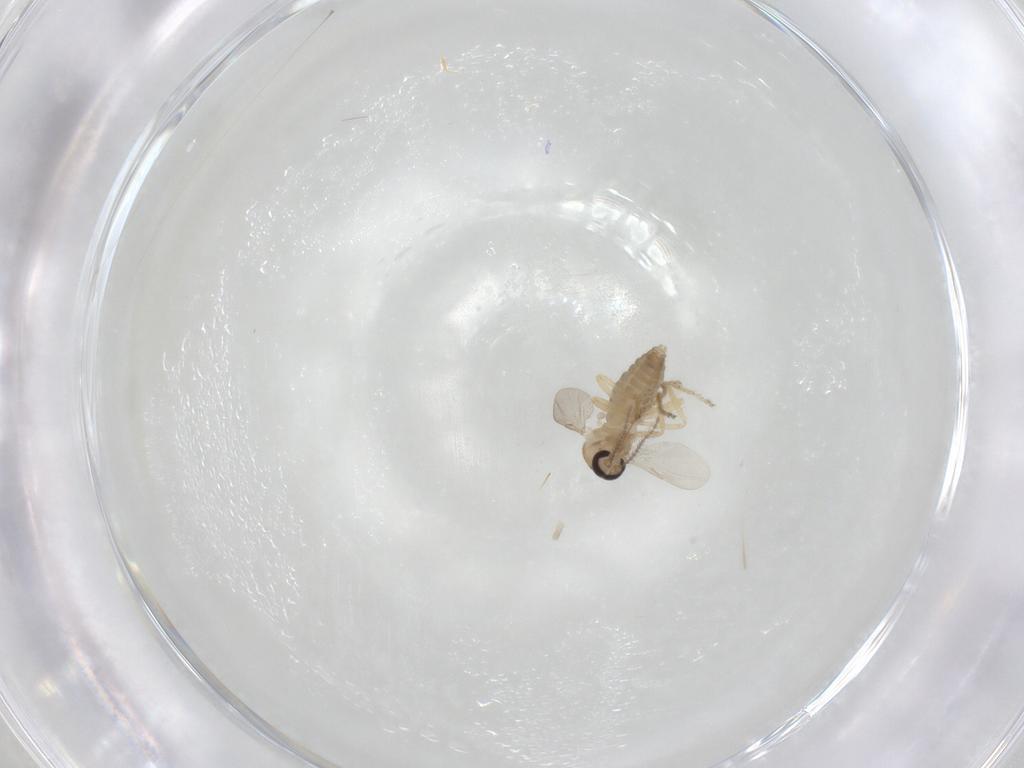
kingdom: Animalia
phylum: Arthropoda
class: Insecta
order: Diptera
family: Ceratopogonidae
